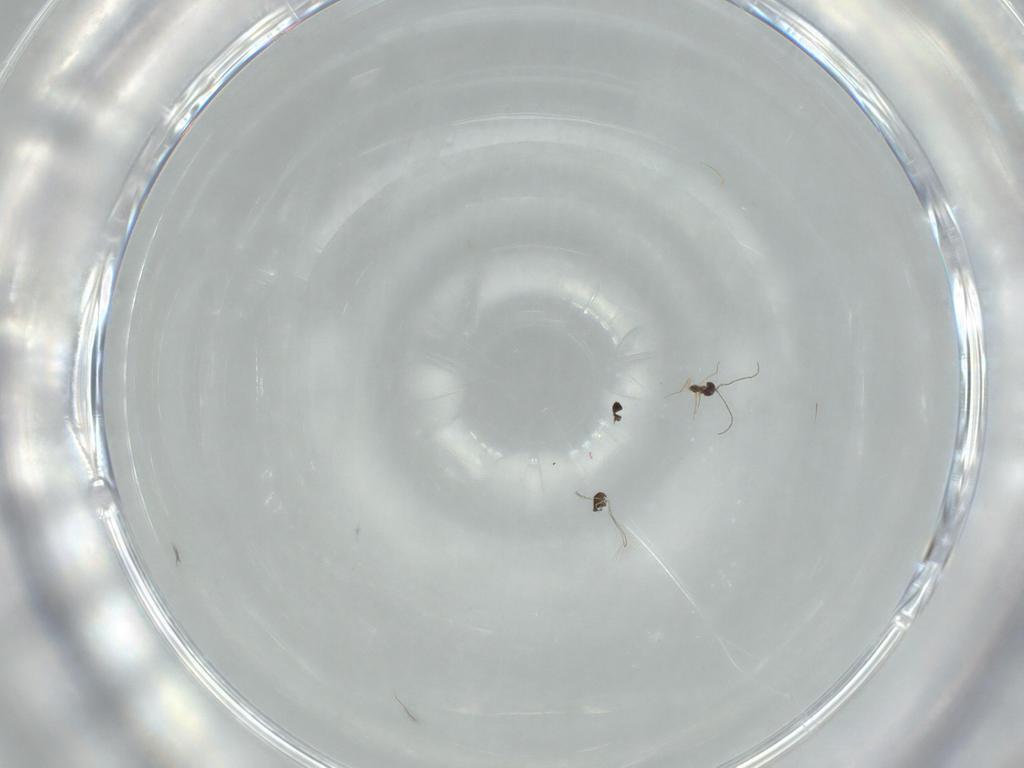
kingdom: Animalia
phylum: Arthropoda
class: Insecta
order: Hymenoptera
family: Mymaridae
